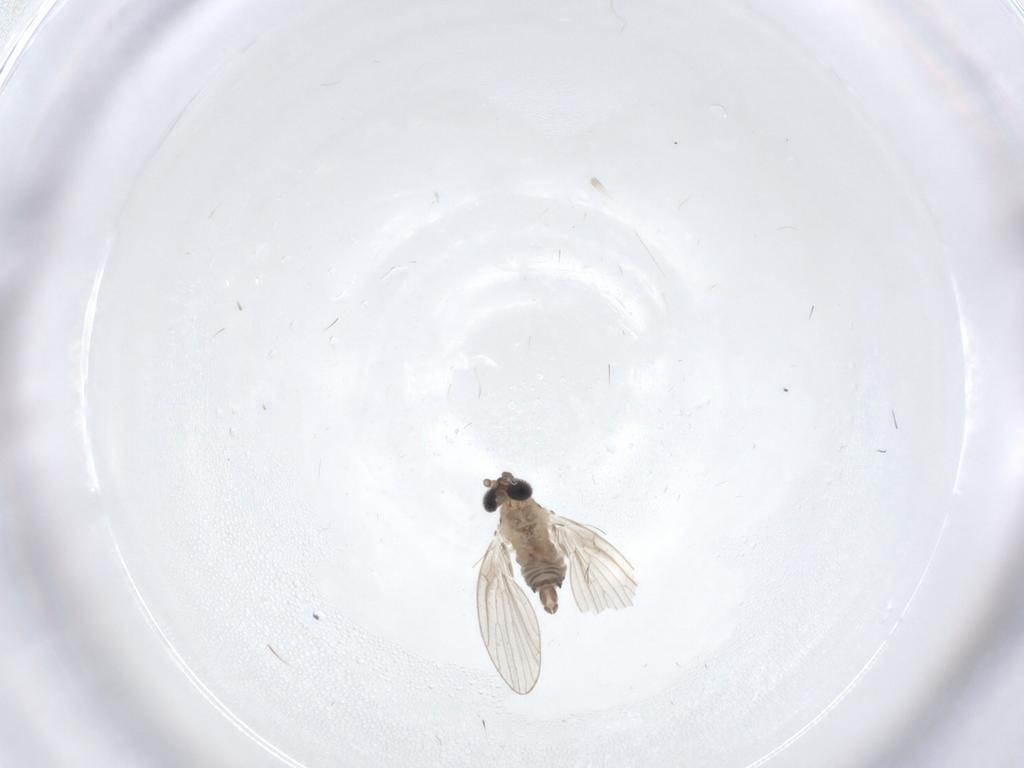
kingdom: Animalia
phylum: Arthropoda
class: Insecta
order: Diptera
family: Psychodidae
